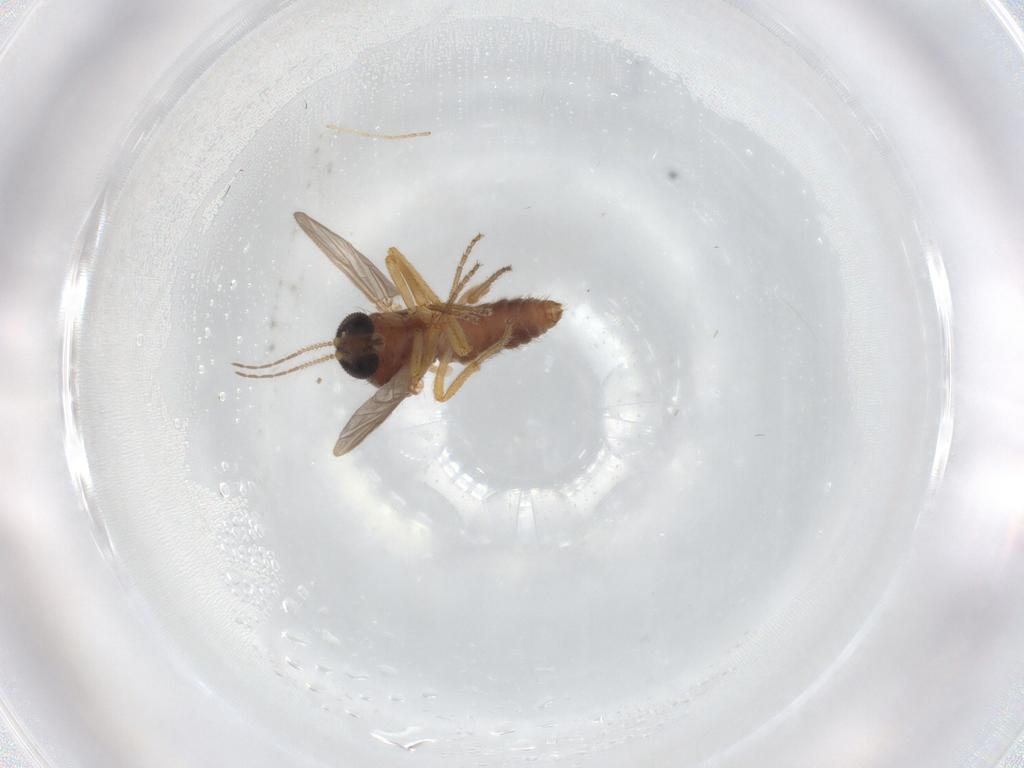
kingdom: Animalia
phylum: Arthropoda
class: Insecta
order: Diptera
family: Ceratopogonidae
